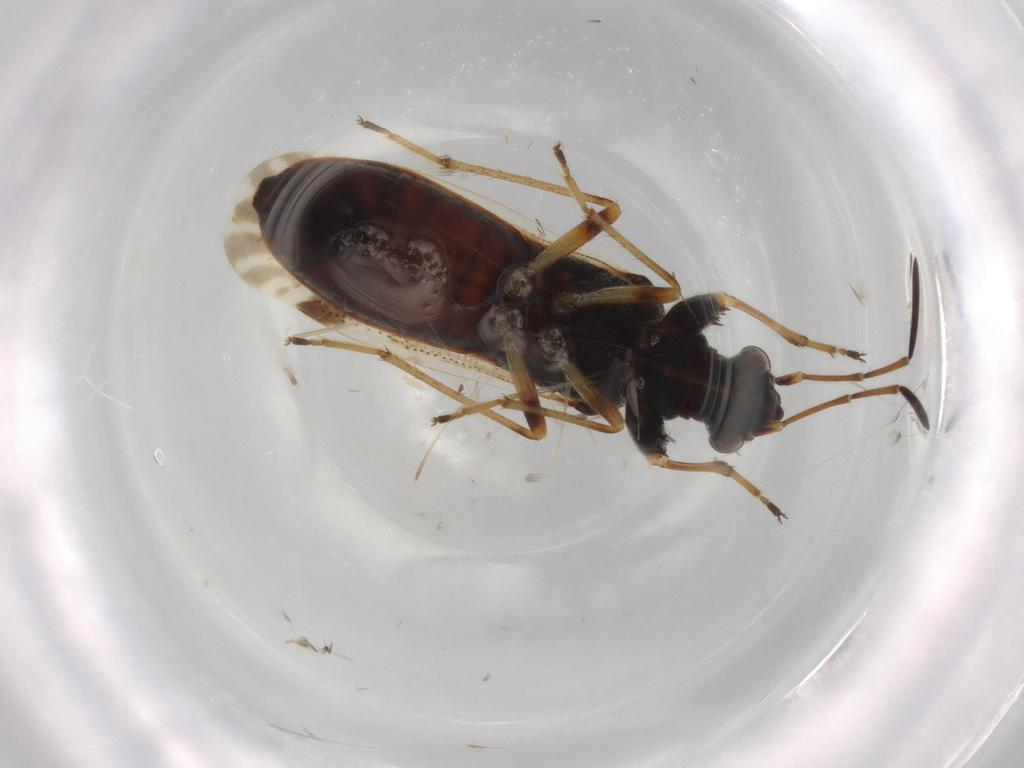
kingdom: Animalia
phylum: Arthropoda
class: Insecta
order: Hemiptera
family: Rhyparochromidae
